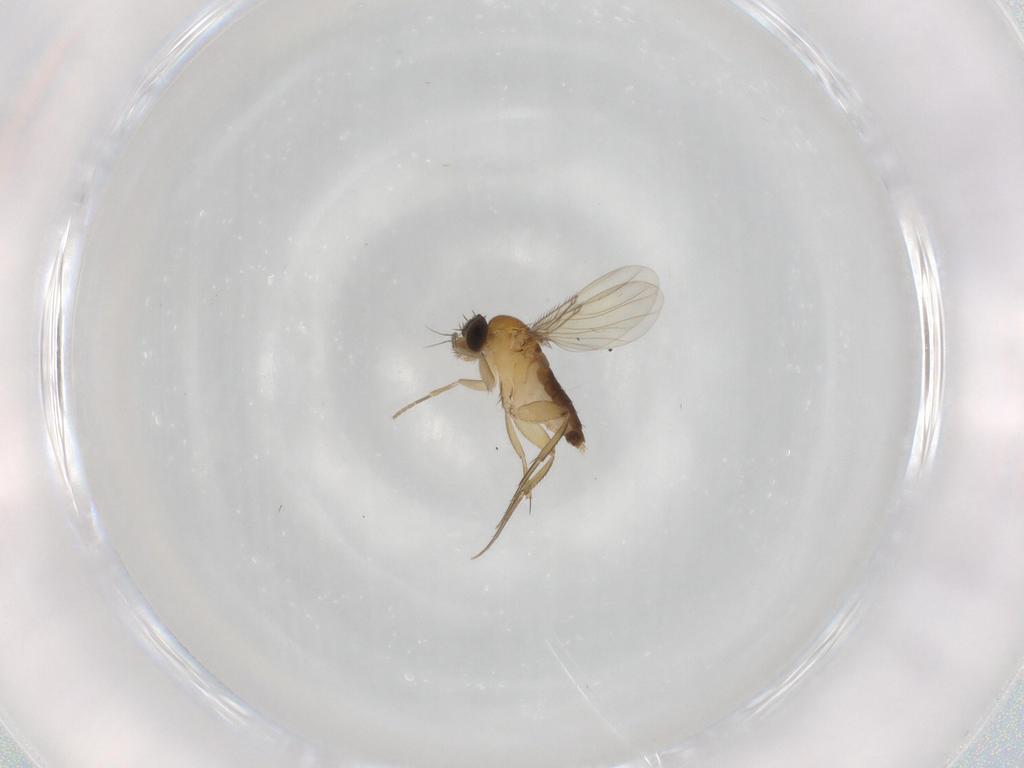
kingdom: Animalia
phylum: Arthropoda
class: Insecta
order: Diptera
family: Phoridae
